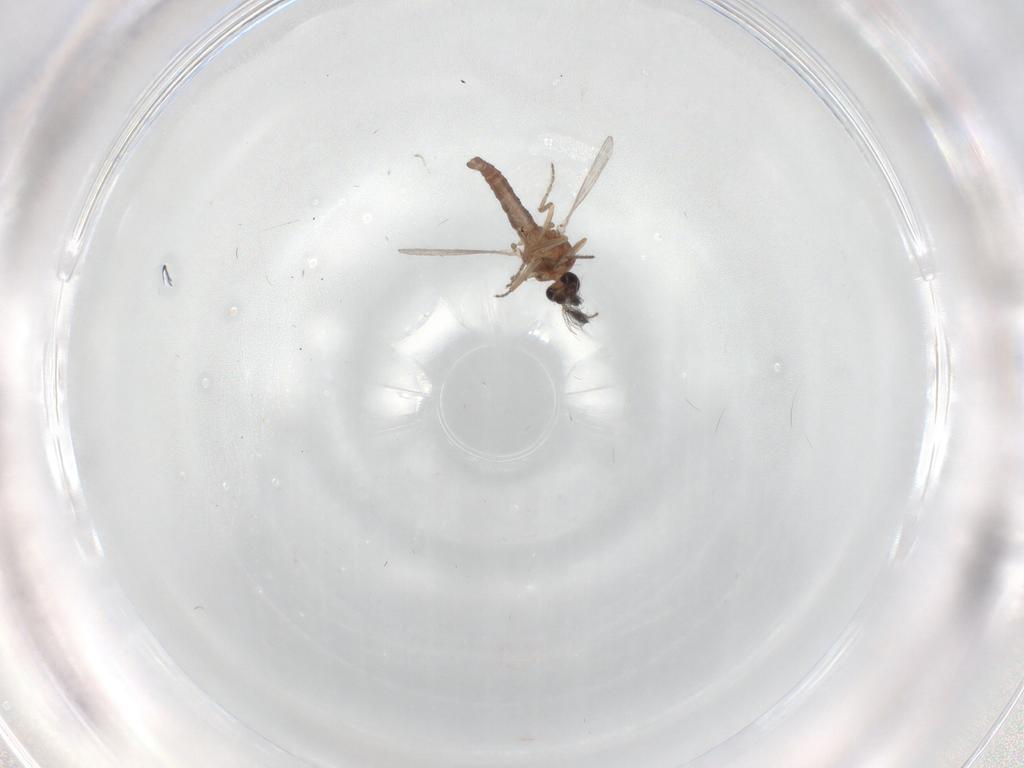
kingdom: Animalia
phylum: Arthropoda
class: Insecta
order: Diptera
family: Ceratopogonidae
